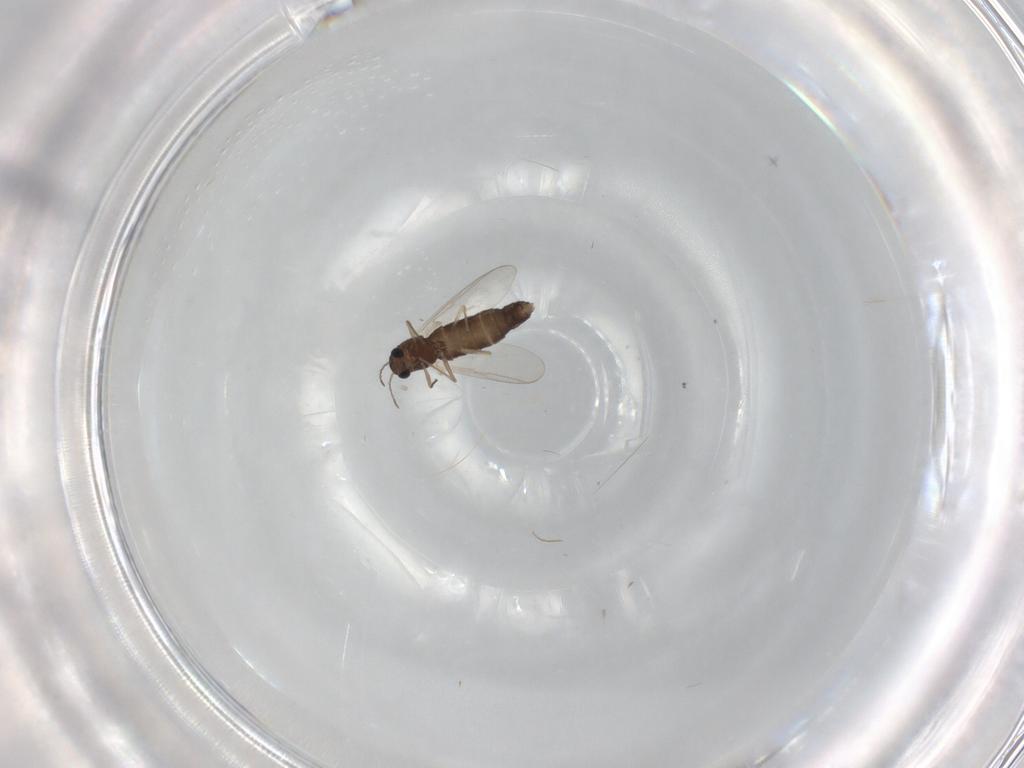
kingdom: Animalia
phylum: Arthropoda
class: Insecta
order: Diptera
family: Chironomidae
